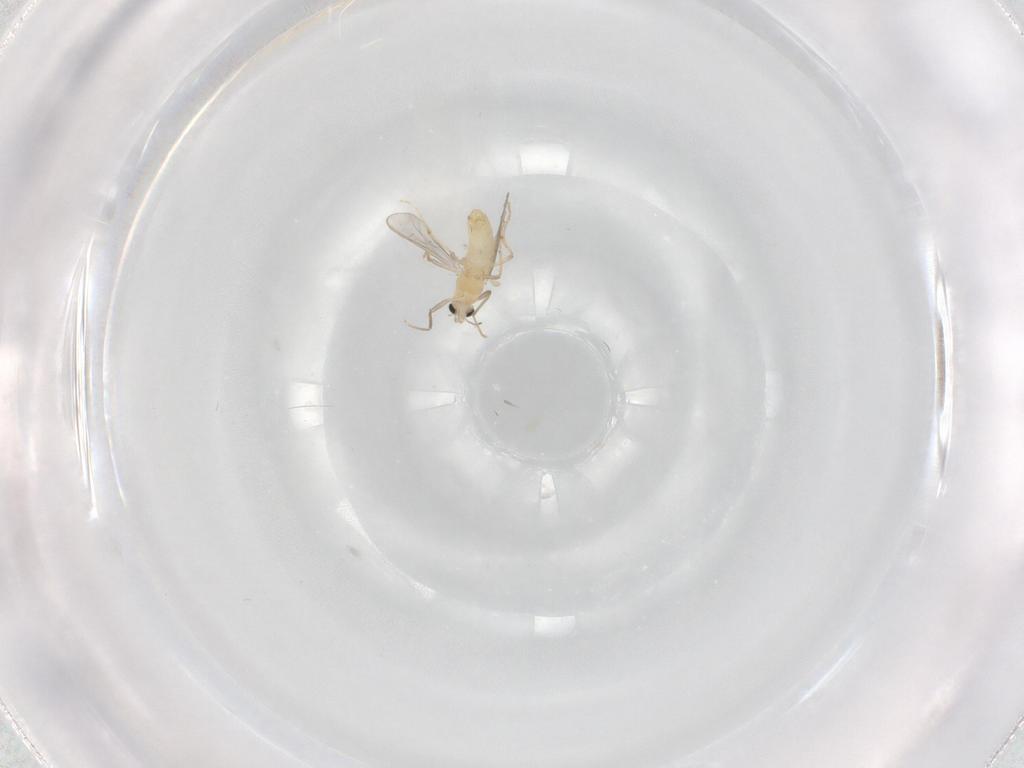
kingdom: Animalia
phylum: Arthropoda
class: Insecta
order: Diptera
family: Chironomidae
